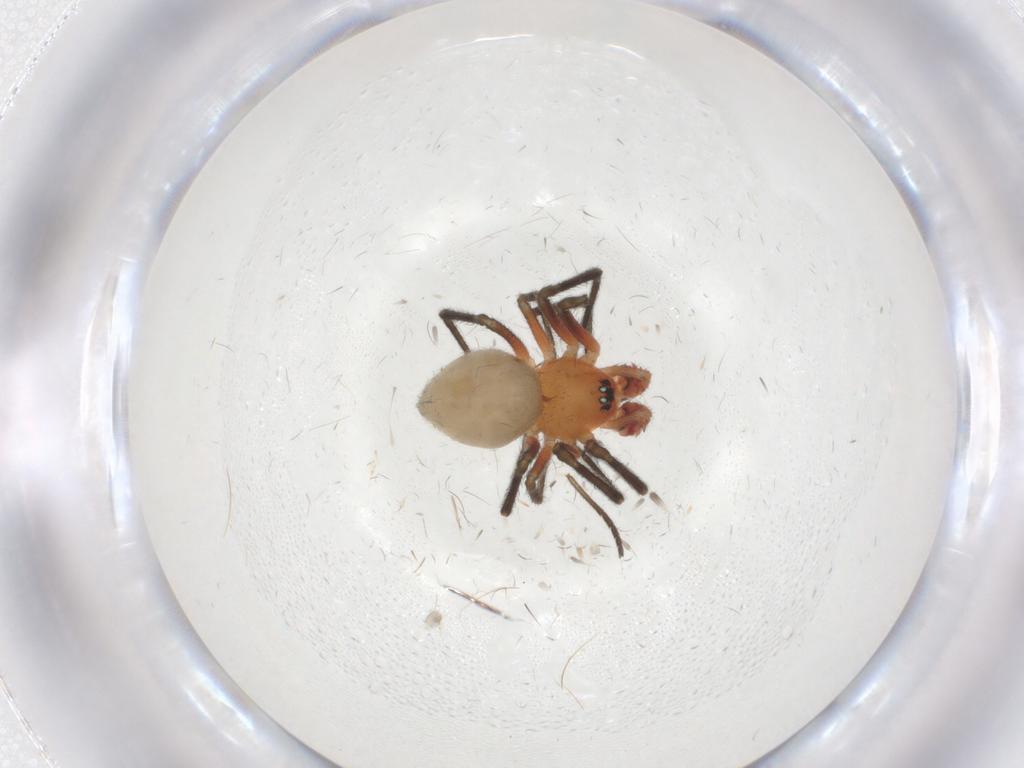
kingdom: Animalia
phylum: Arthropoda
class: Arachnida
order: Araneae
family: Linyphiidae
